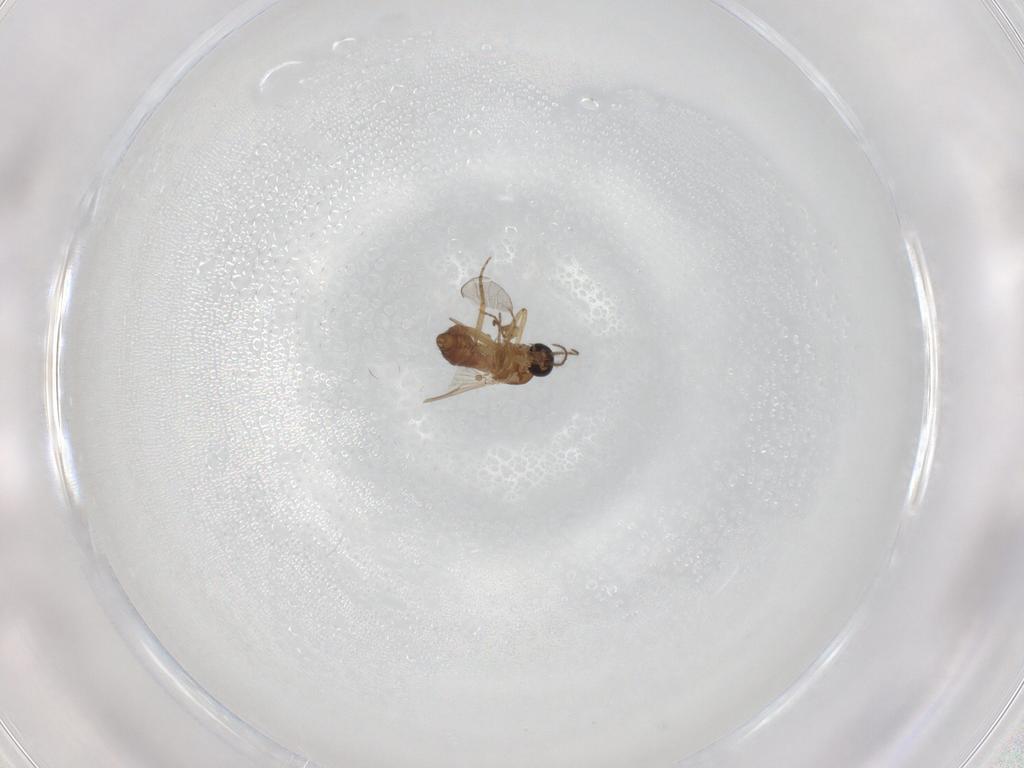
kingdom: Animalia
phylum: Arthropoda
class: Insecta
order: Diptera
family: Ceratopogonidae
